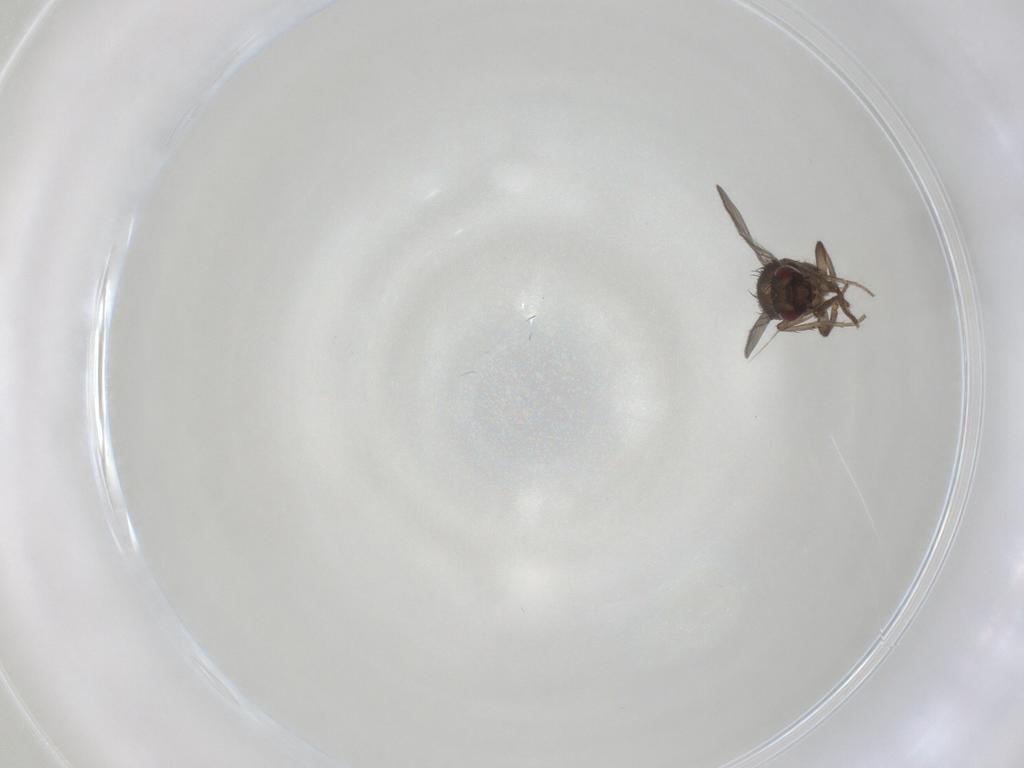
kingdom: Animalia
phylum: Arthropoda
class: Insecta
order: Diptera
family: Sphaeroceridae
